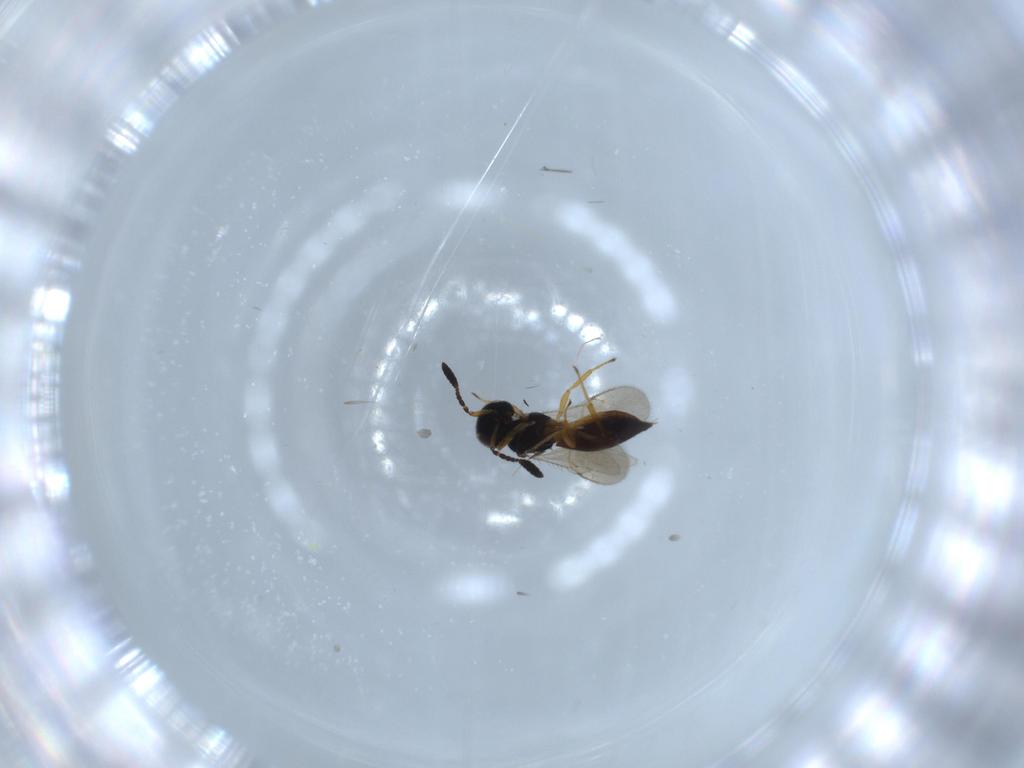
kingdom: Animalia
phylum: Arthropoda
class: Insecta
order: Hymenoptera
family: Scelionidae
